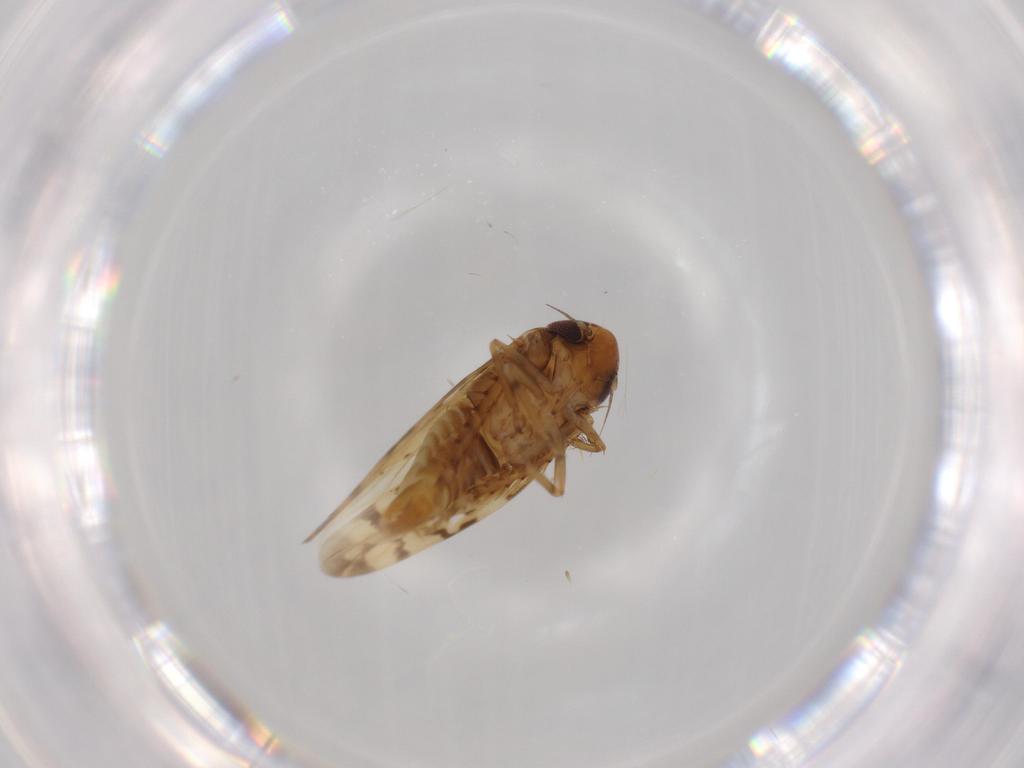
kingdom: Animalia
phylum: Arthropoda
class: Insecta
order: Hemiptera
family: Cicadellidae
